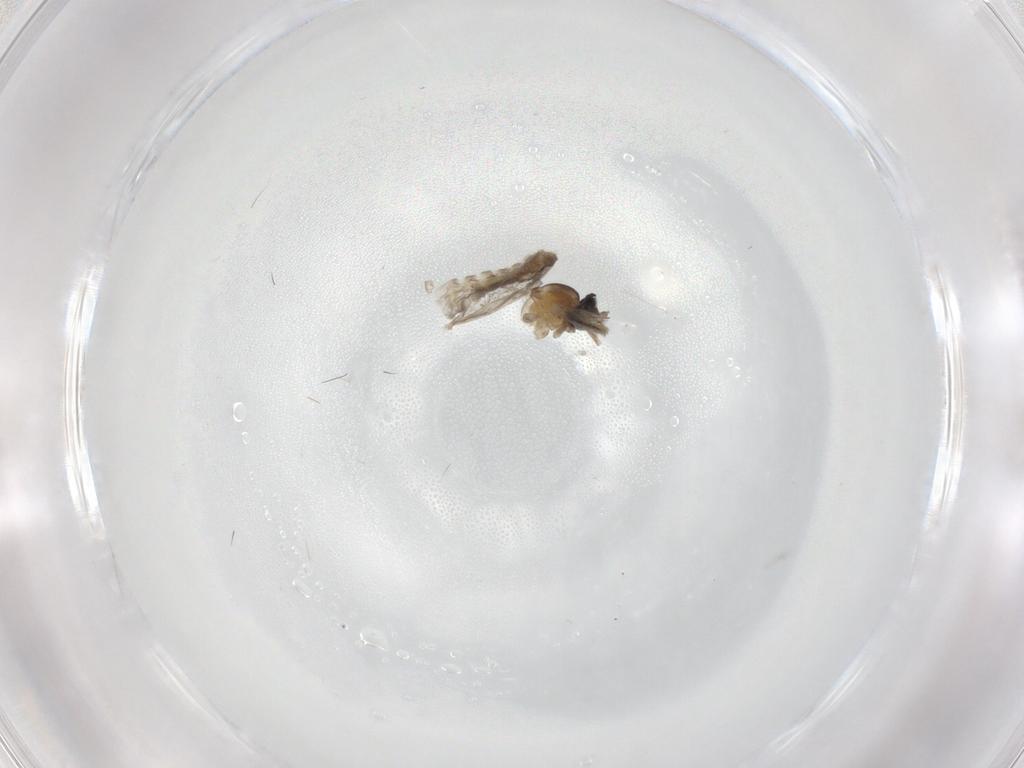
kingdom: Animalia
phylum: Arthropoda
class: Insecta
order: Diptera
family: Cecidomyiidae
